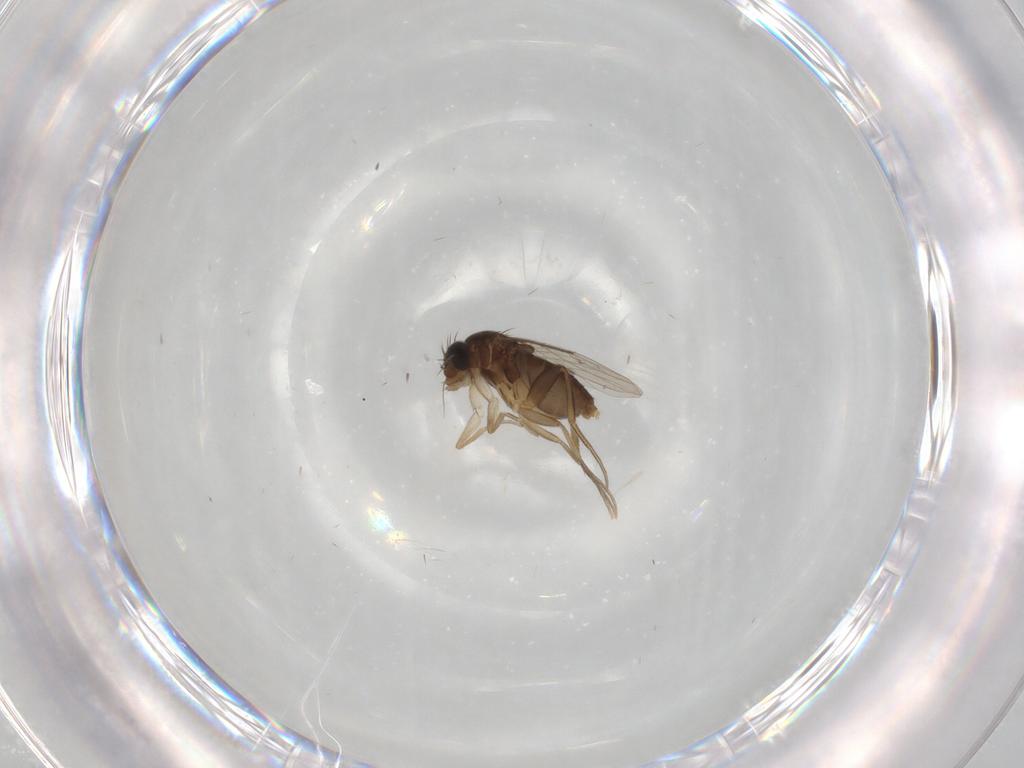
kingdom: Animalia
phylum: Arthropoda
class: Insecta
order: Diptera
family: Phoridae
